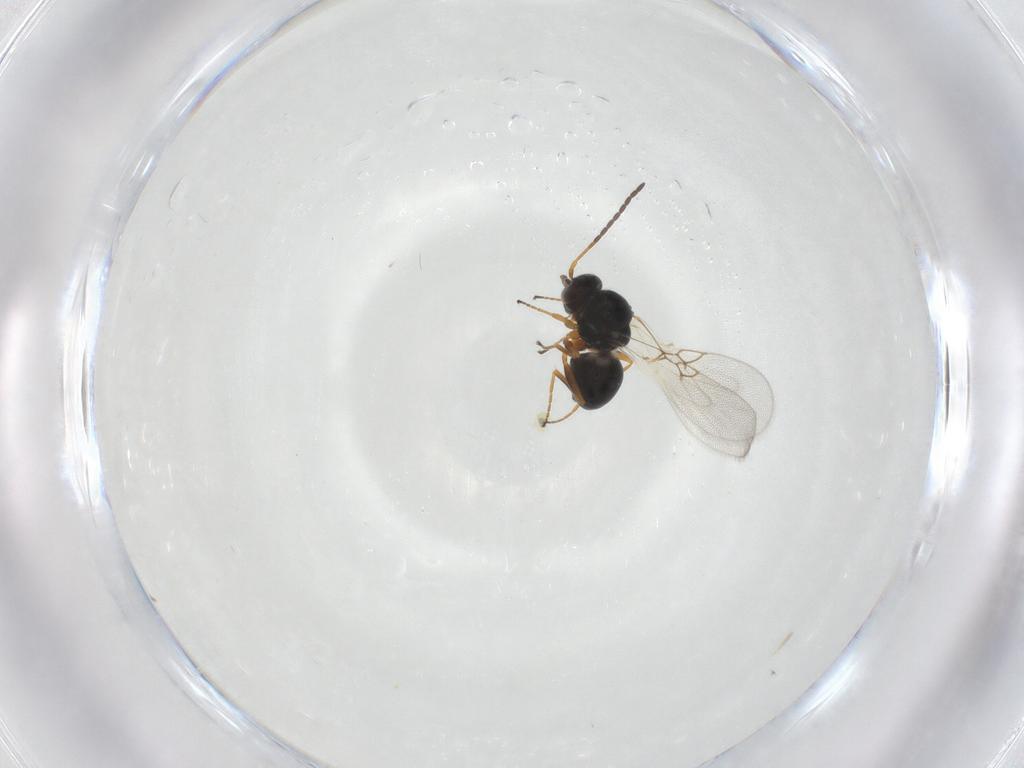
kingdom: Animalia
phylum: Arthropoda
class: Insecta
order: Hymenoptera
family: Figitidae
